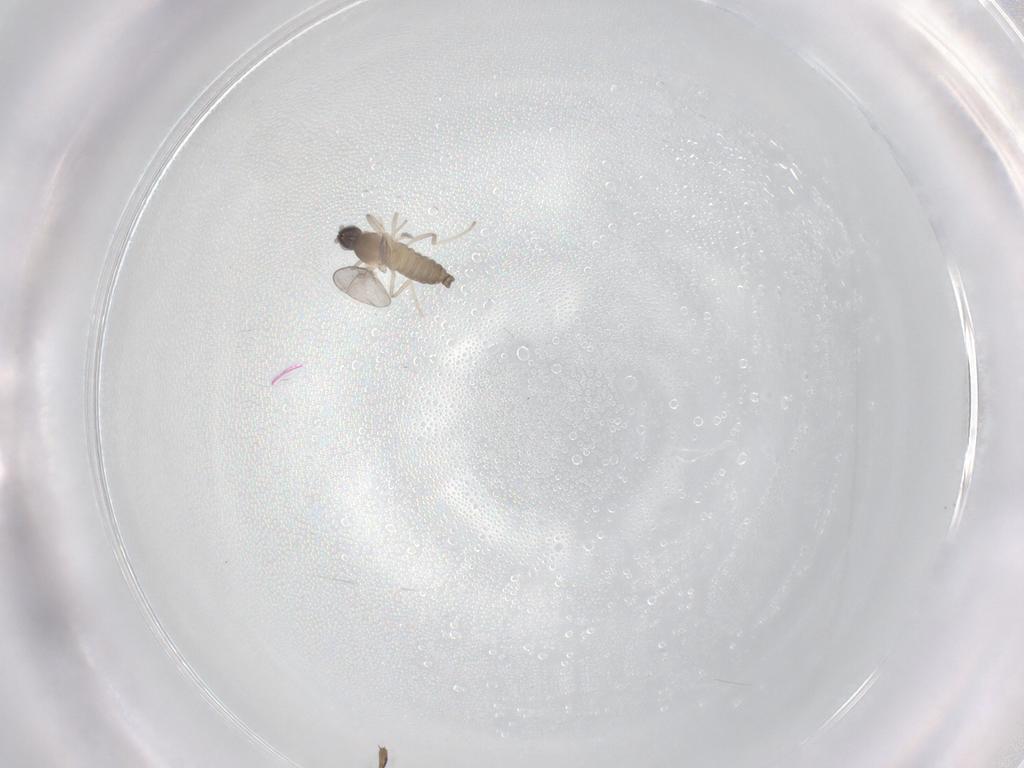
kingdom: Animalia
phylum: Arthropoda
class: Insecta
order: Diptera
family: Cecidomyiidae
